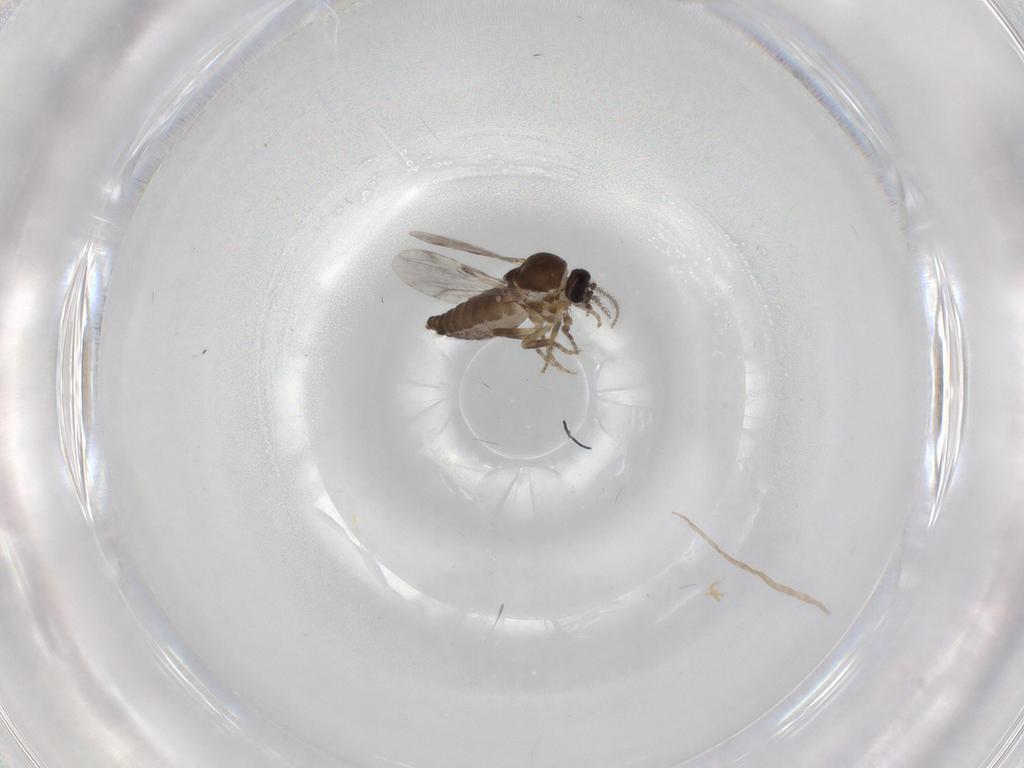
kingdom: Animalia
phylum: Arthropoda
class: Insecta
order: Diptera
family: Ceratopogonidae
